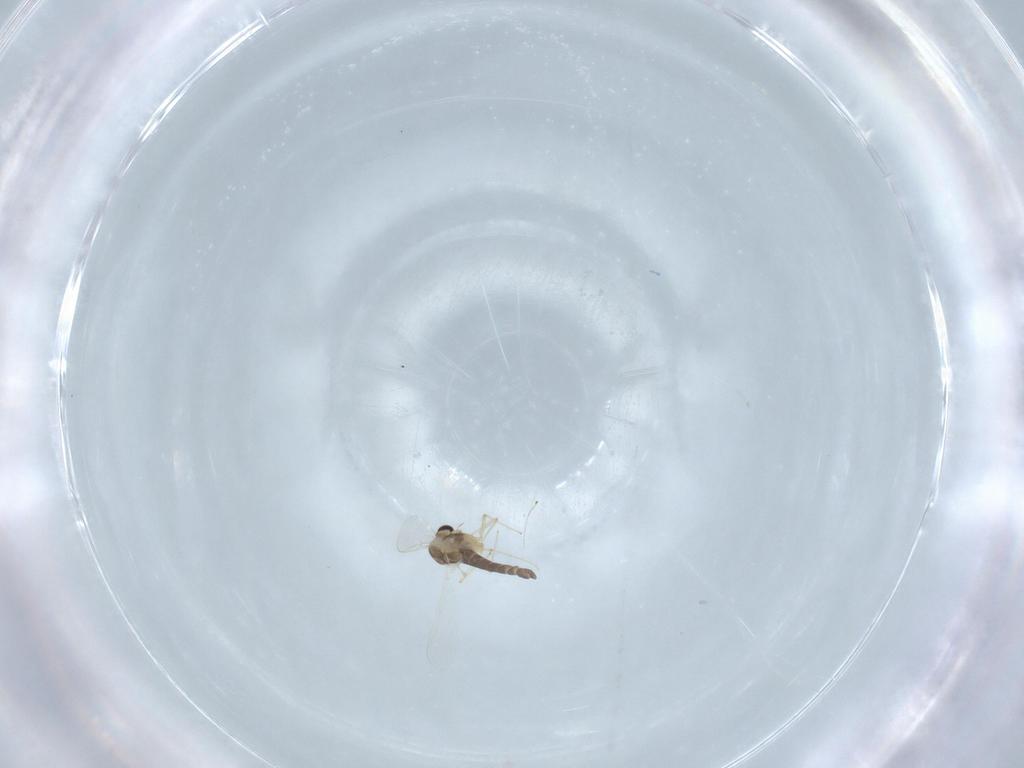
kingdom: Animalia
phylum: Arthropoda
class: Insecta
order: Diptera
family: Chironomidae
